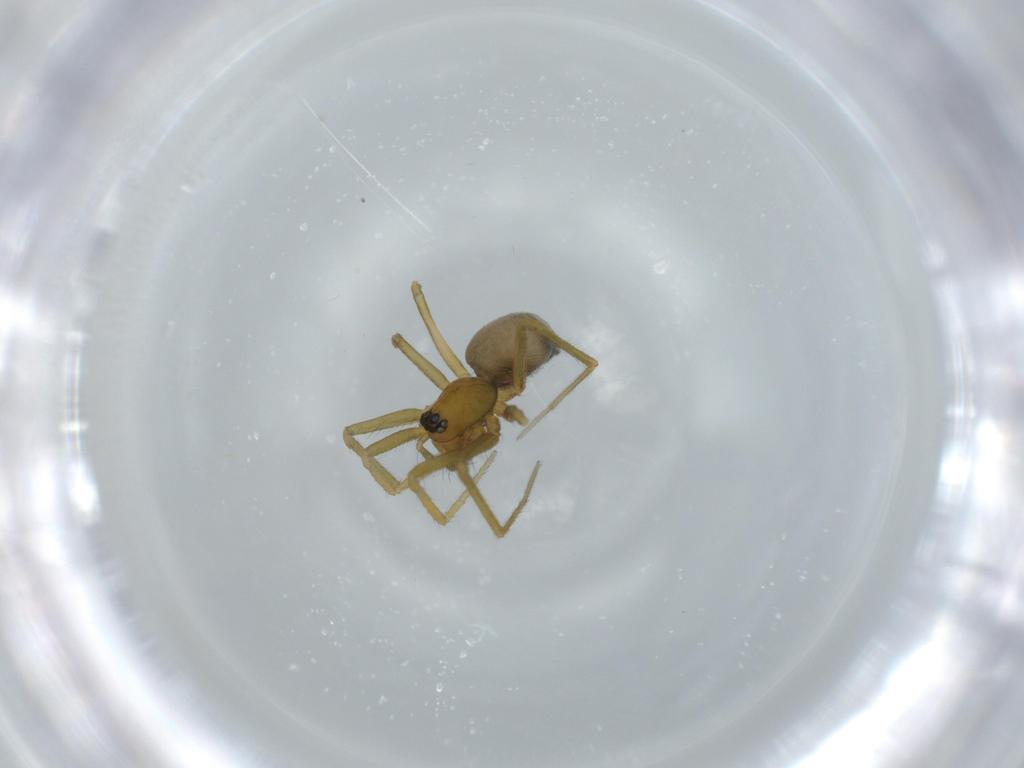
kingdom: Animalia
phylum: Arthropoda
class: Arachnida
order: Araneae
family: Linyphiidae
